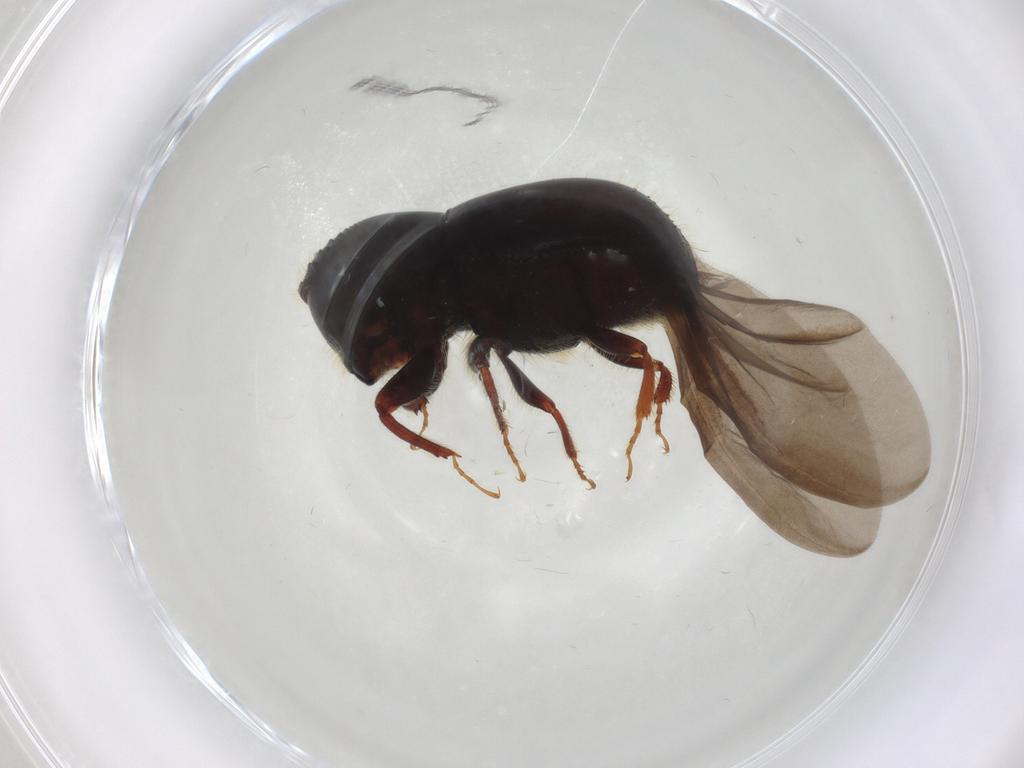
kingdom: Animalia
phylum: Arthropoda
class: Insecta
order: Coleoptera
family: Curculionidae
